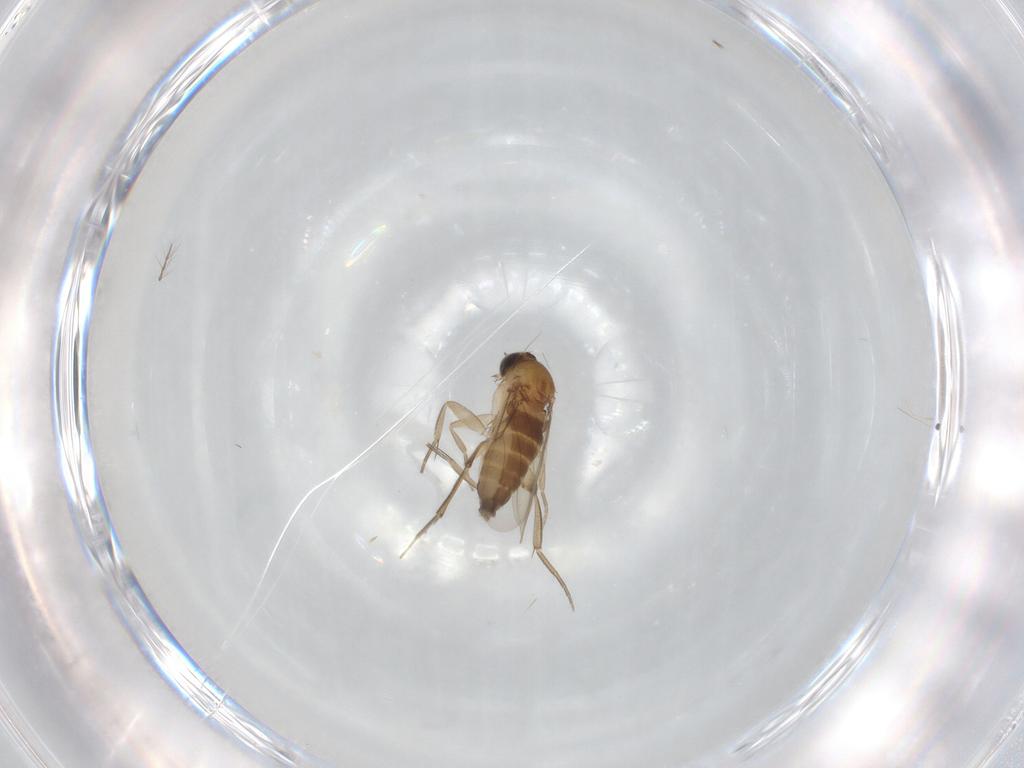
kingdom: Animalia
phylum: Arthropoda
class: Insecta
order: Diptera
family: Phoridae
